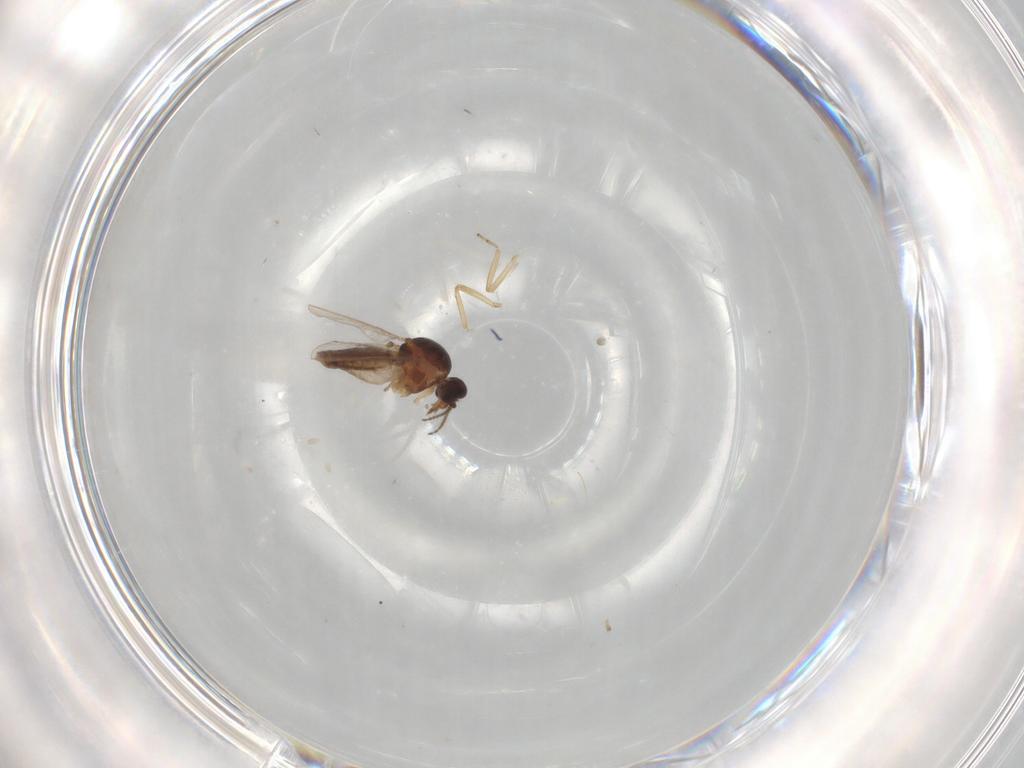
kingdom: Animalia
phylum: Arthropoda
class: Insecta
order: Diptera
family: Ceratopogonidae
